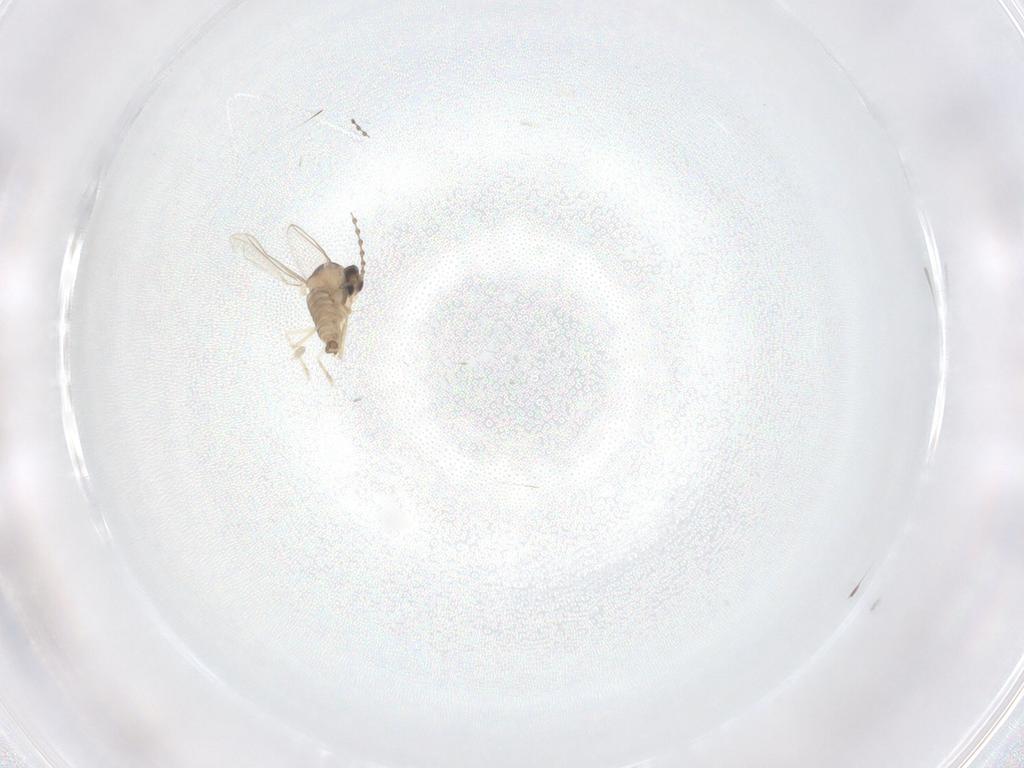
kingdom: Animalia
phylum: Arthropoda
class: Insecta
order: Diptera
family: Cecidomyiidae
